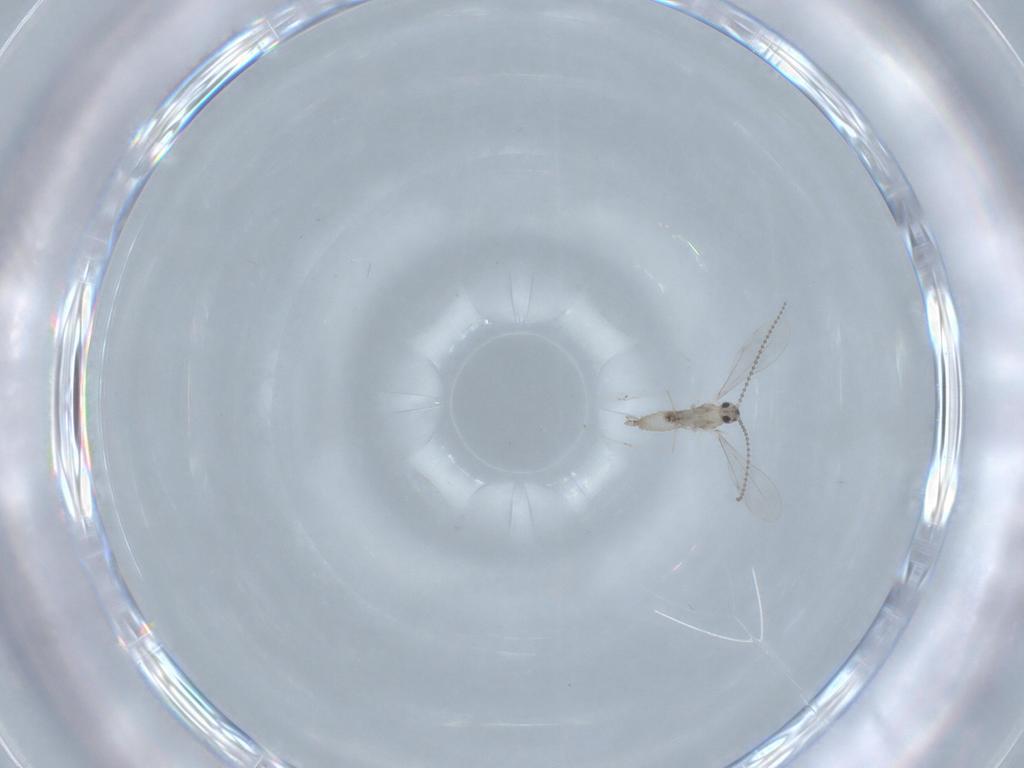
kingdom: Animalia
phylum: Arthropoda
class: Insecta
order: Diptera
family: Cecidomyiidae
